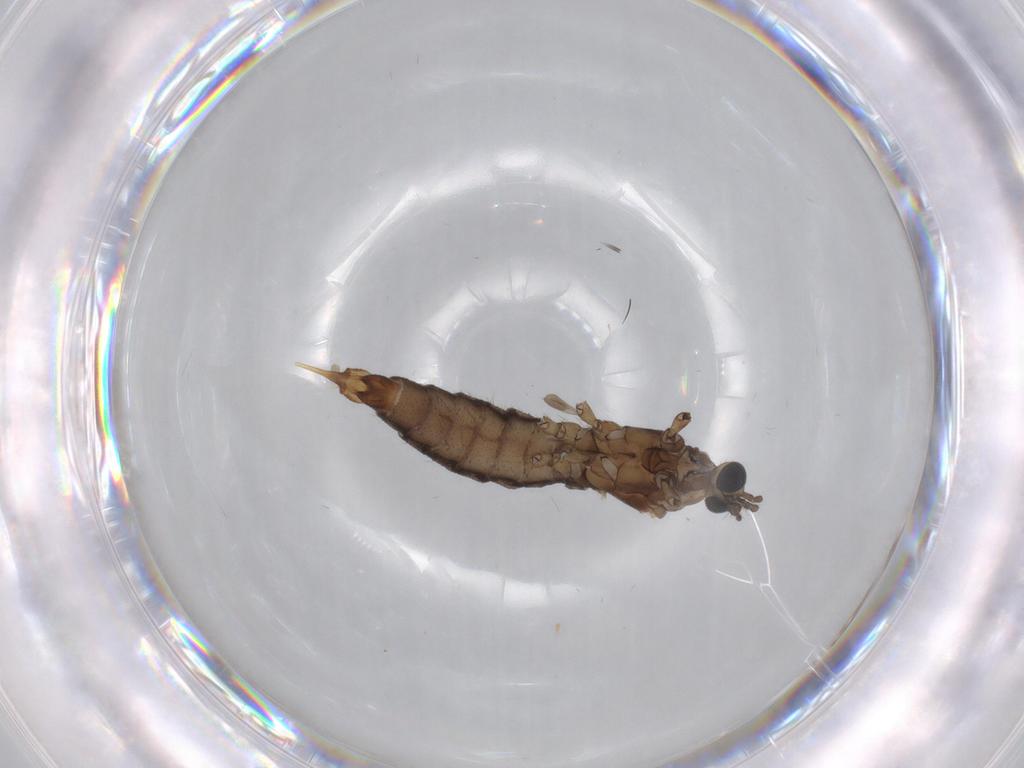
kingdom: Animalia
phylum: Arthropoda
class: Insecta
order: Diptera
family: Limoniidae
